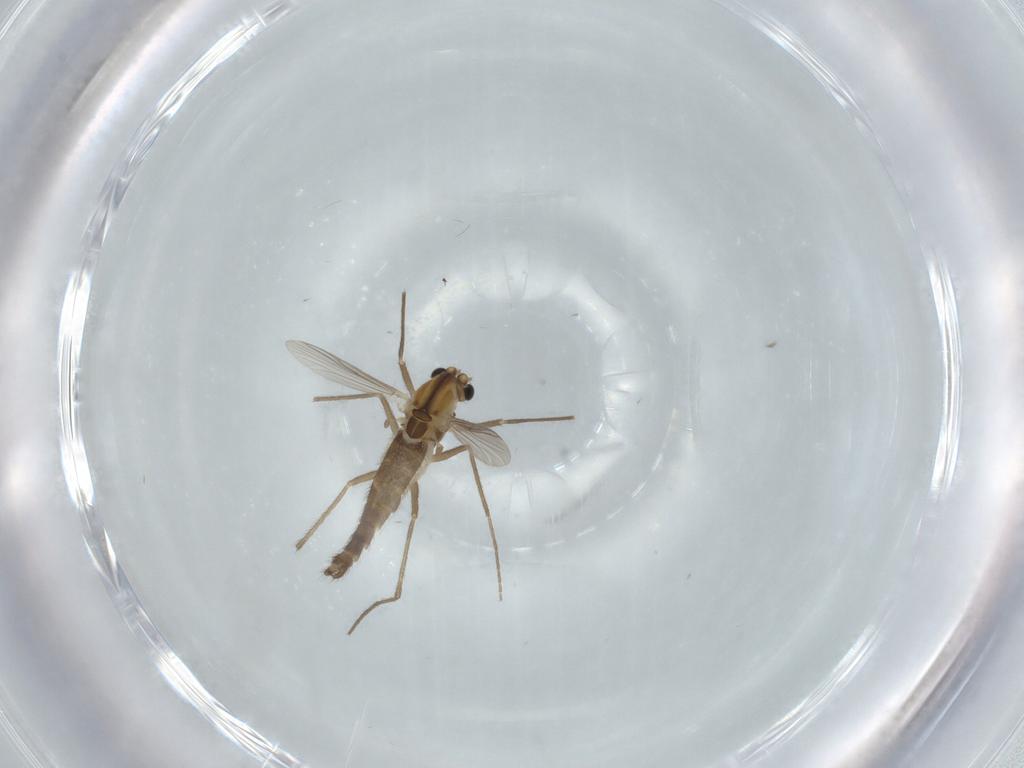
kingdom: Animalia
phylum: Arthropoda
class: Insecta
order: Diptera
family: Chironomidae
